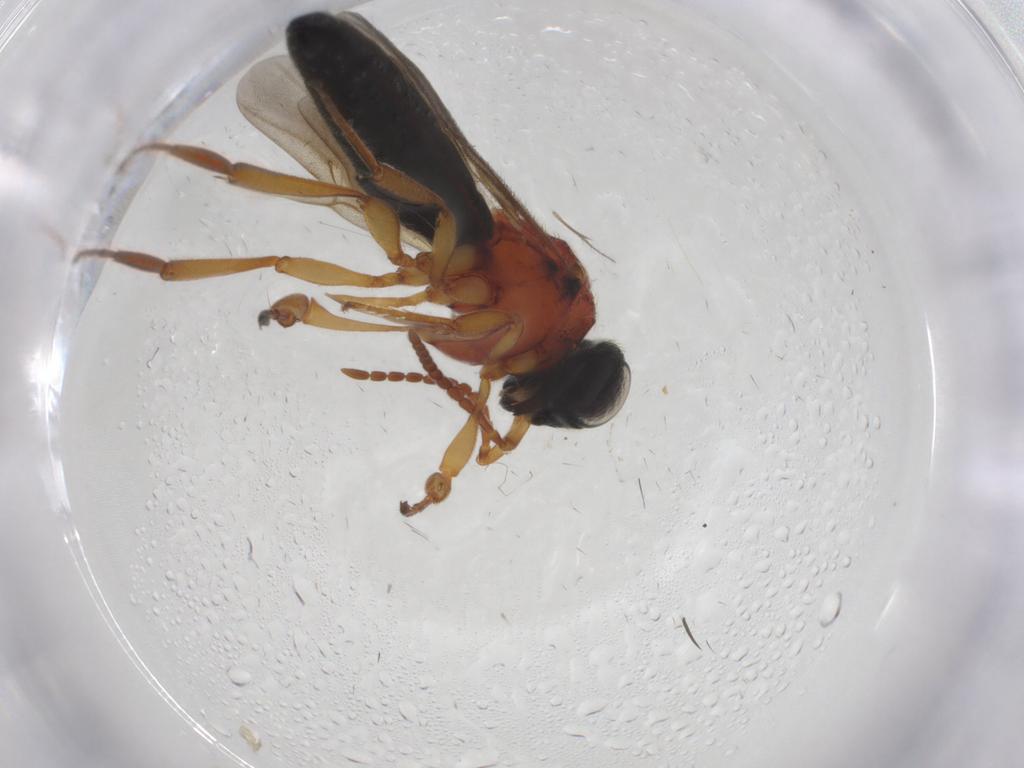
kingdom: Animalia
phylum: Arthropoda
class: Insecta
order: Hymenoptera
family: Scelionidae
